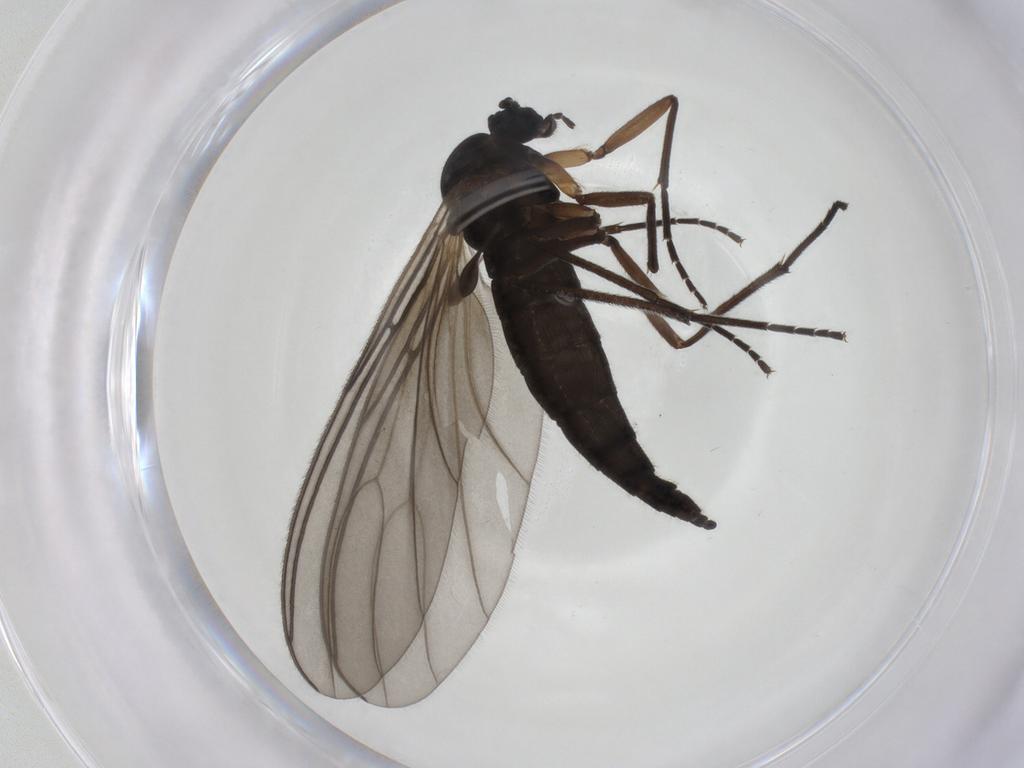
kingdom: Animalia
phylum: Arthropoda
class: Insecta
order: Diptera
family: Sciaridae
